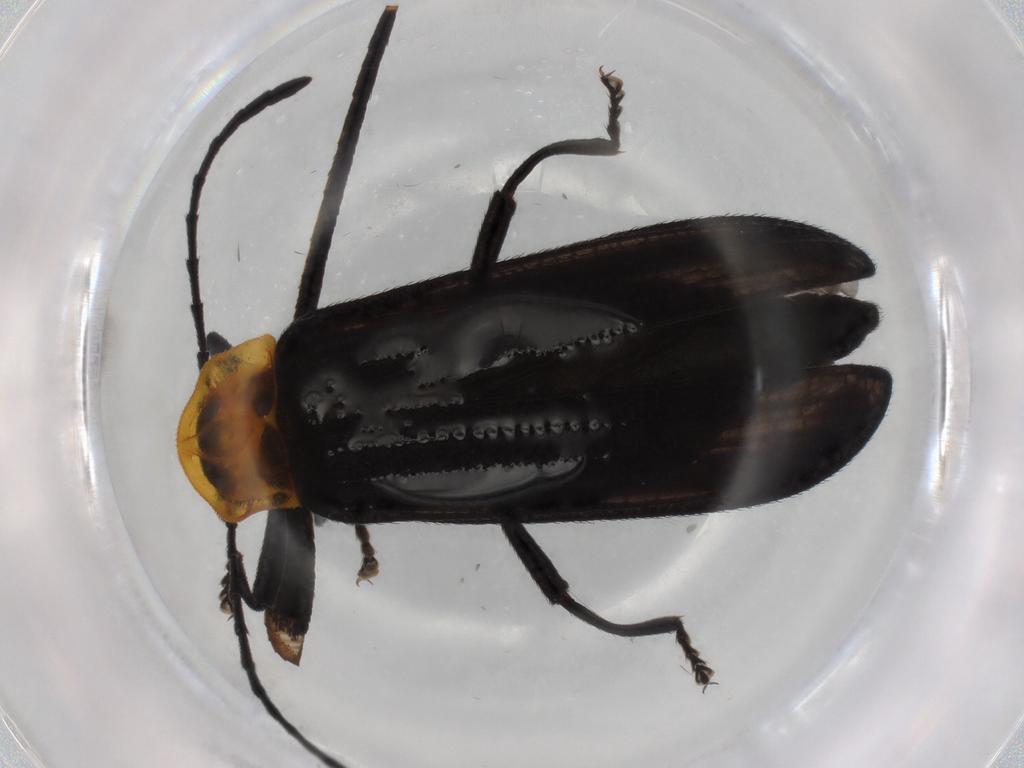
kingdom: Animalia
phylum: Arthropoda
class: Insecta
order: Coleoptera
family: Lycidae
